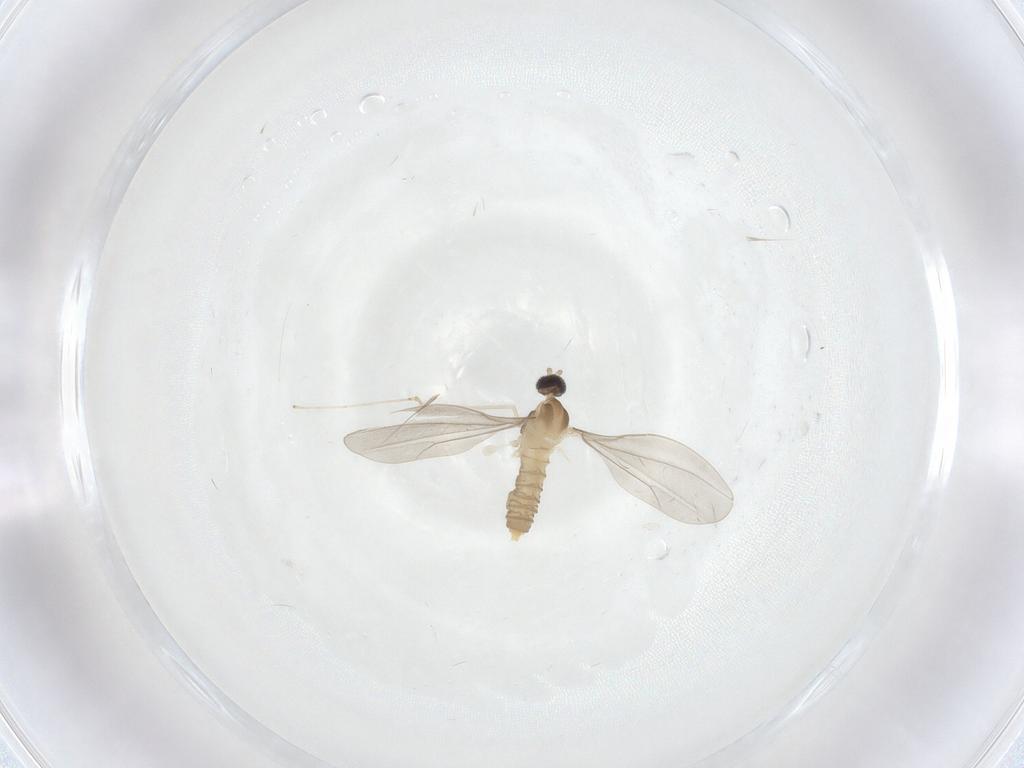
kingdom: Animalia
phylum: Arthropoda
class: Insecta
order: Diptera
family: Cecidomyiidae
